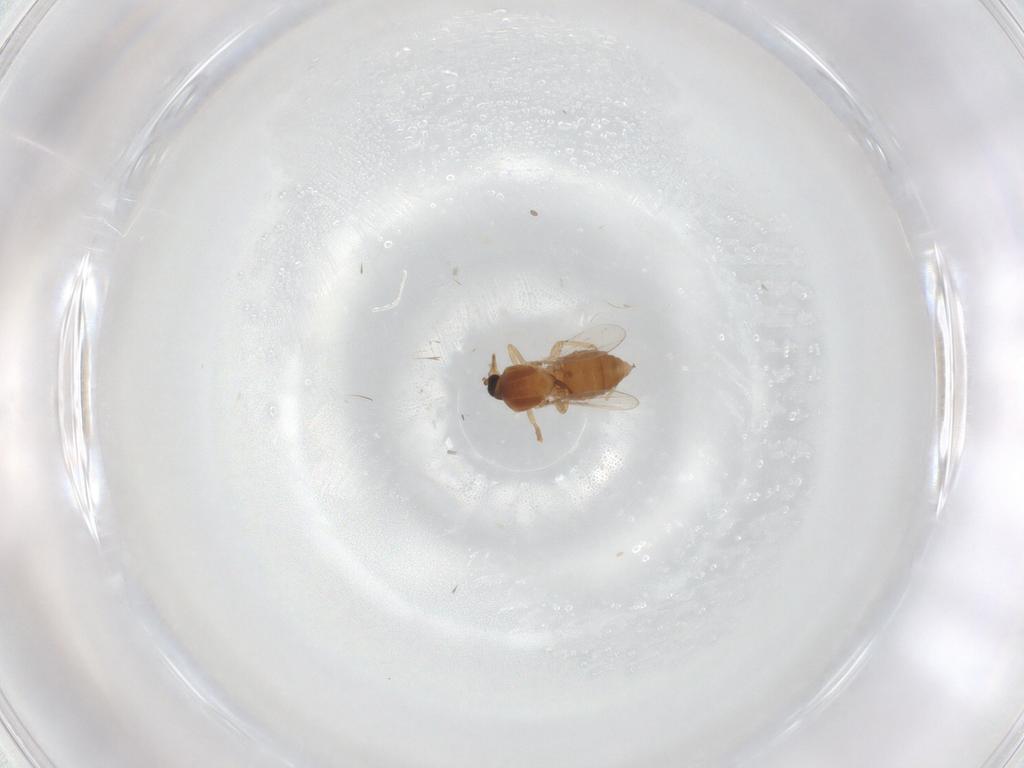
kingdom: Animalia
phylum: Arthropoda
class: Insecta
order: Diptera
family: Ceratopogonidae
